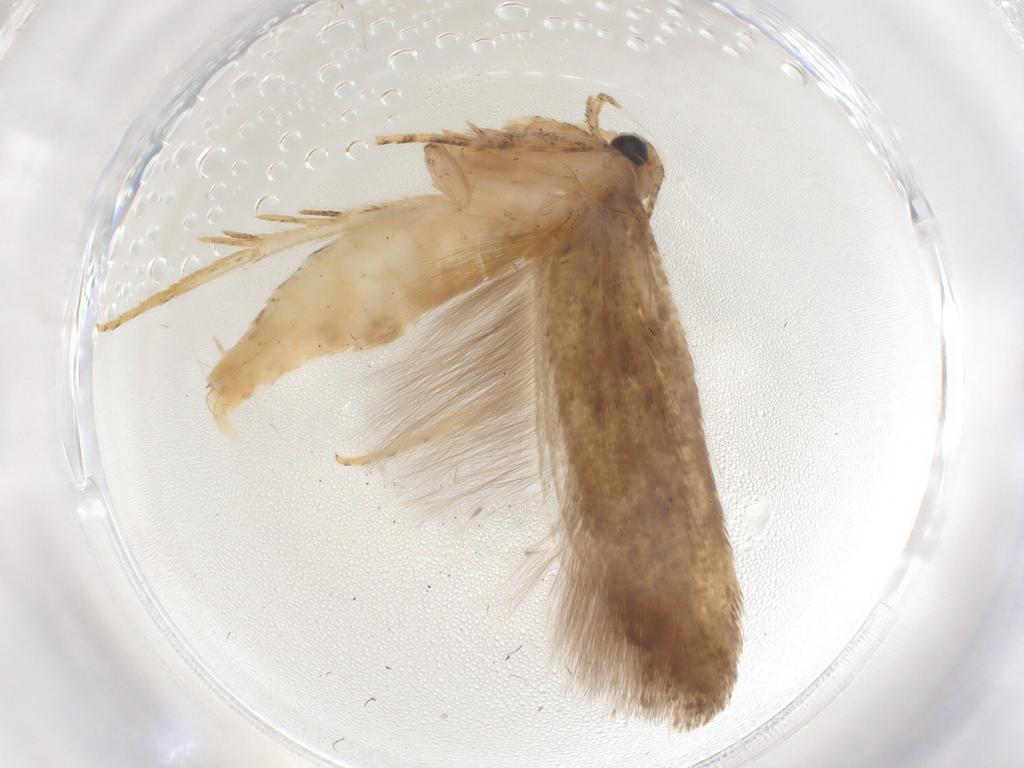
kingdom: Animalia
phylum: Arthropoda
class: Insecta
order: Lepidoptera
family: Gelechiidae
